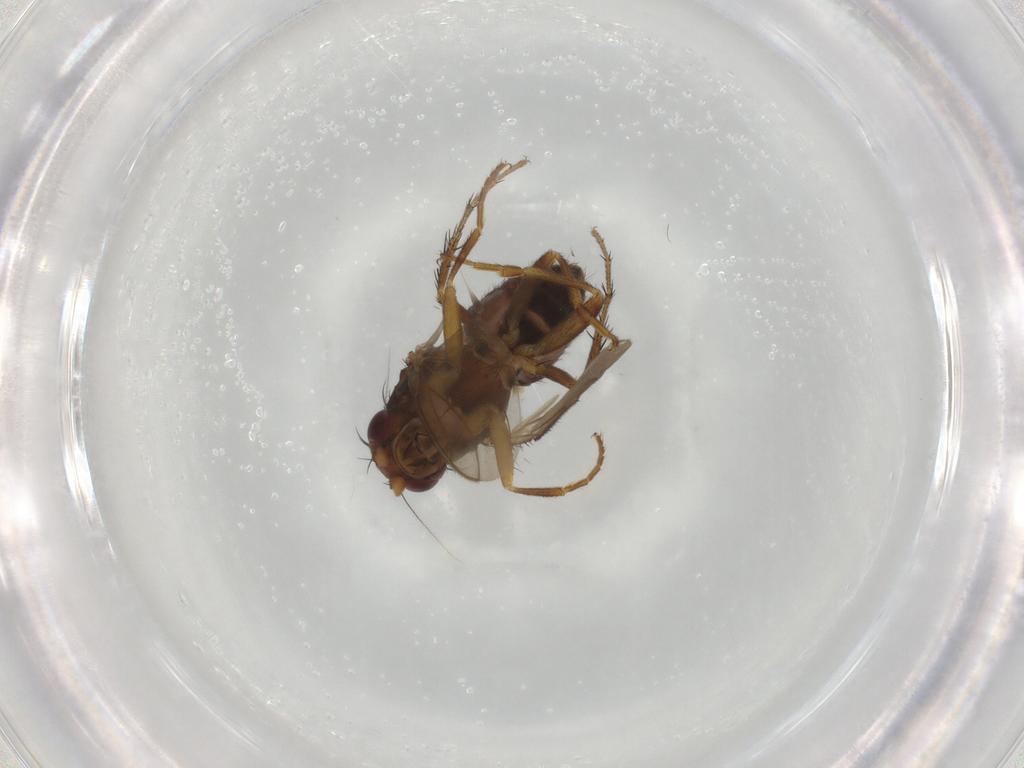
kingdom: Animalia
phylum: Arthropoda
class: Insecta
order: Diptera
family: Sphaeroceridae
